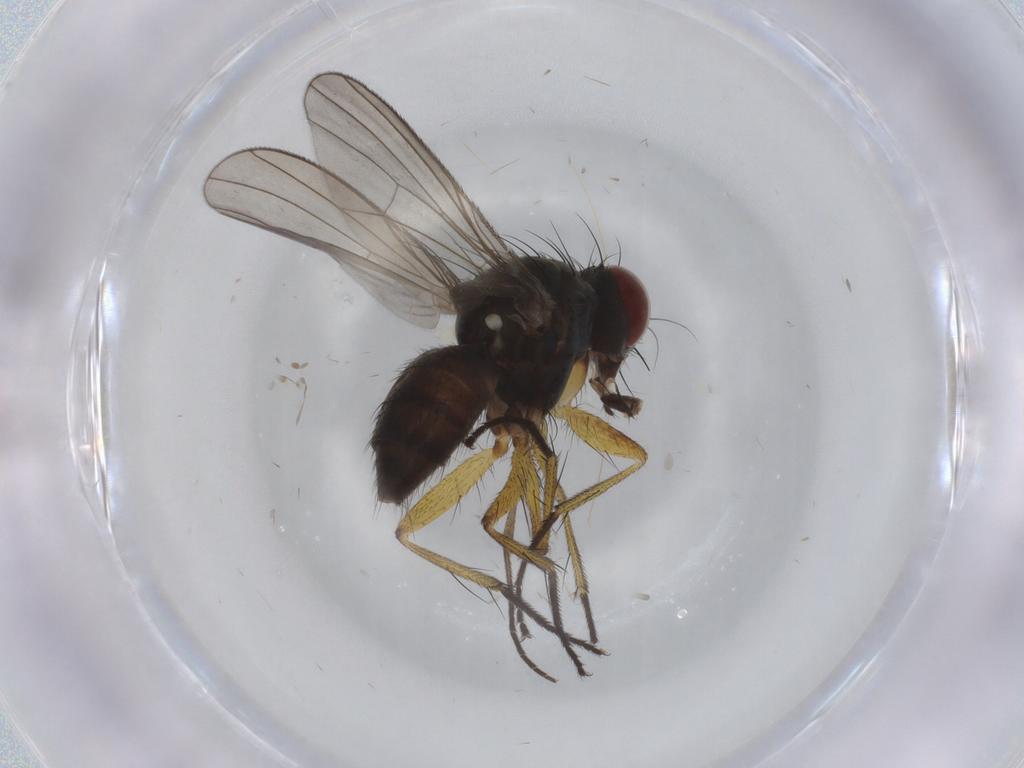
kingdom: Animalia
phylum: Arthropoda
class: Insecta
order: Diptera
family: Muscidae
